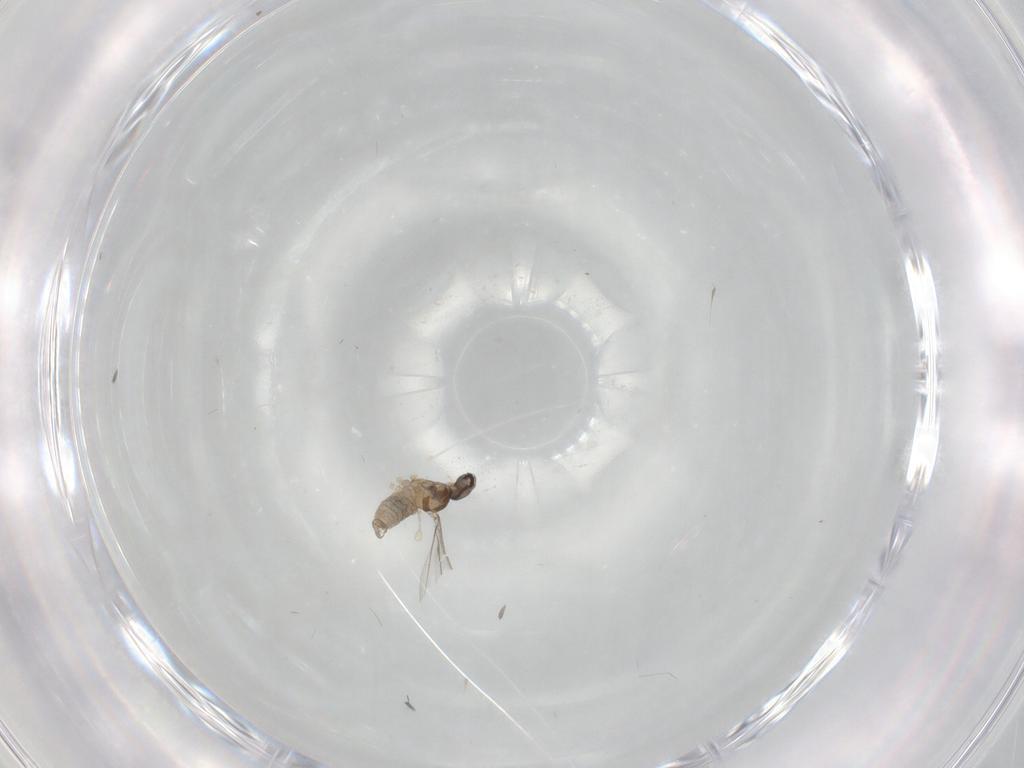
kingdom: Animalia
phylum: Arthropoda
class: Insecta
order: Diptera
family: Cecidomyiidae
